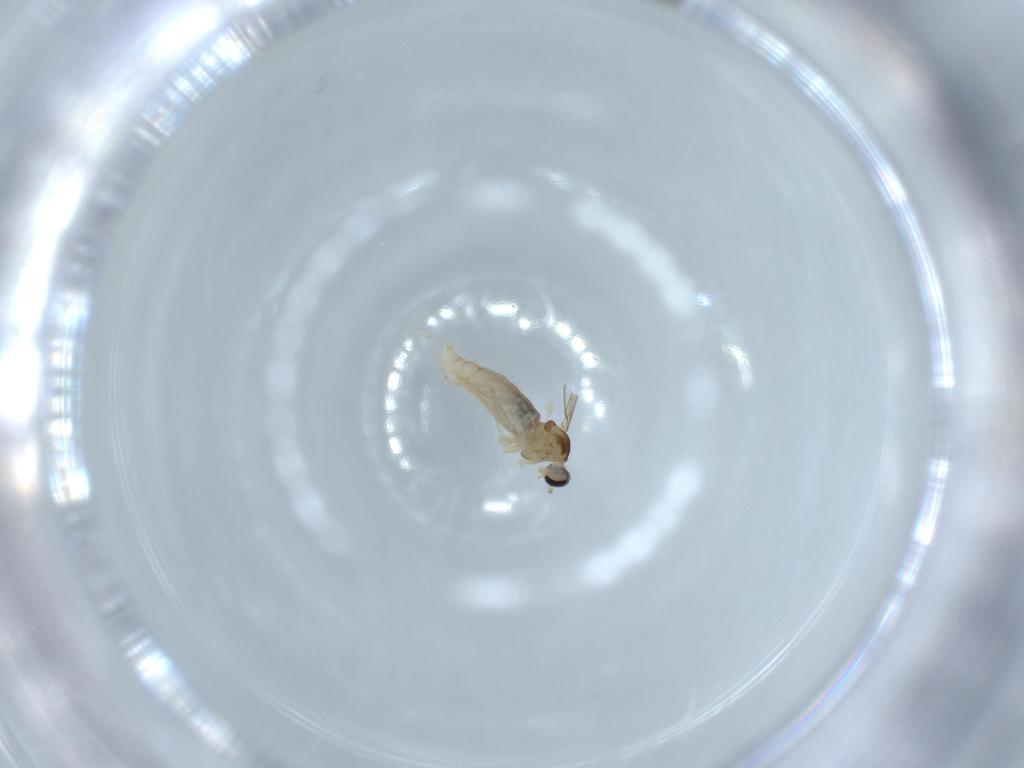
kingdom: Animalia
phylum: Arthropoda
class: Insecta
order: Diptera
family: Cecidomyiidae
